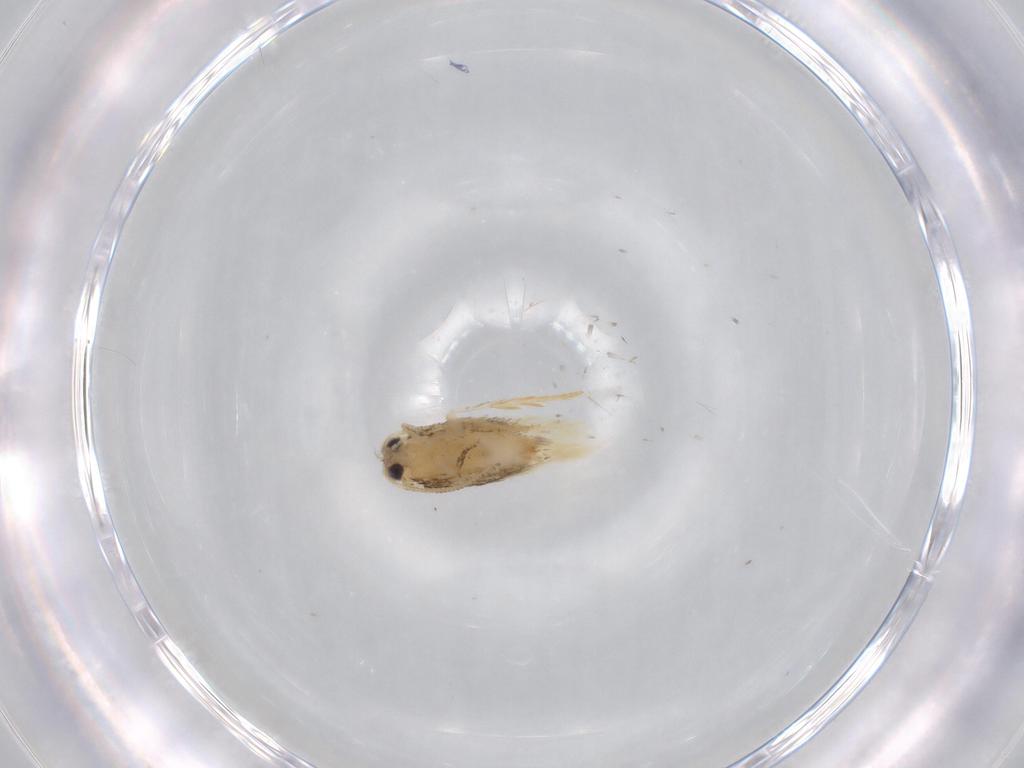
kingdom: Animalia
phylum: Arthropoda
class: Insecta
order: Lepidoptera
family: Nepticulidae
